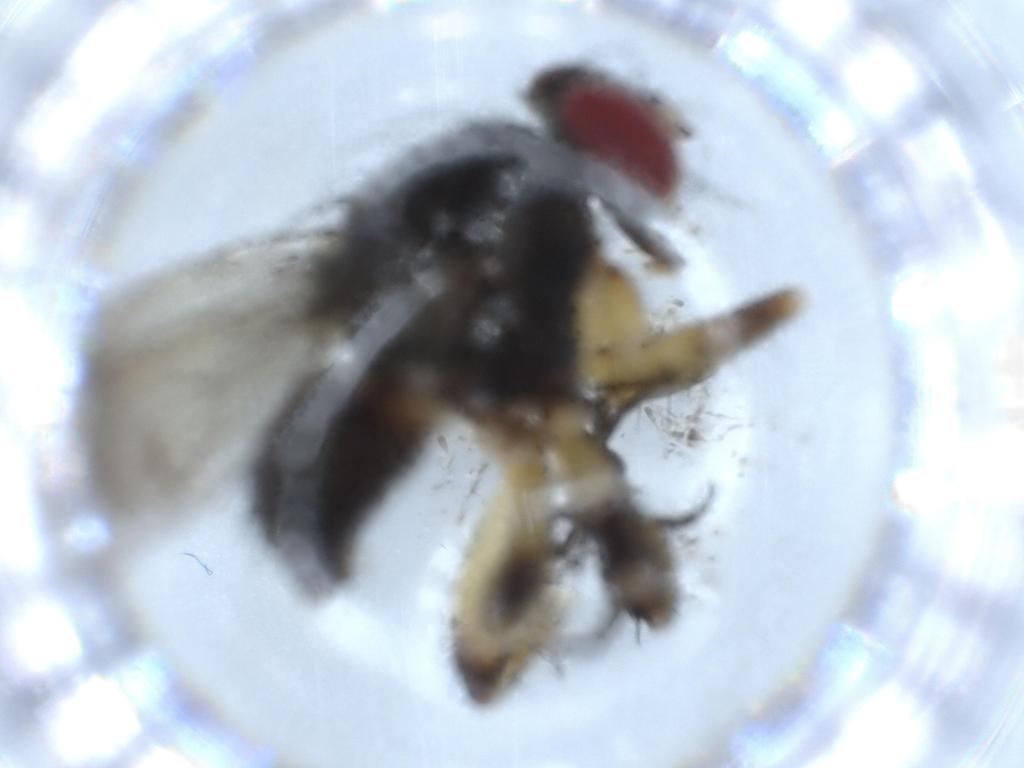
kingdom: Animalia
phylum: Arthropoda
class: Insecta
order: Diptera
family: Muscidae
